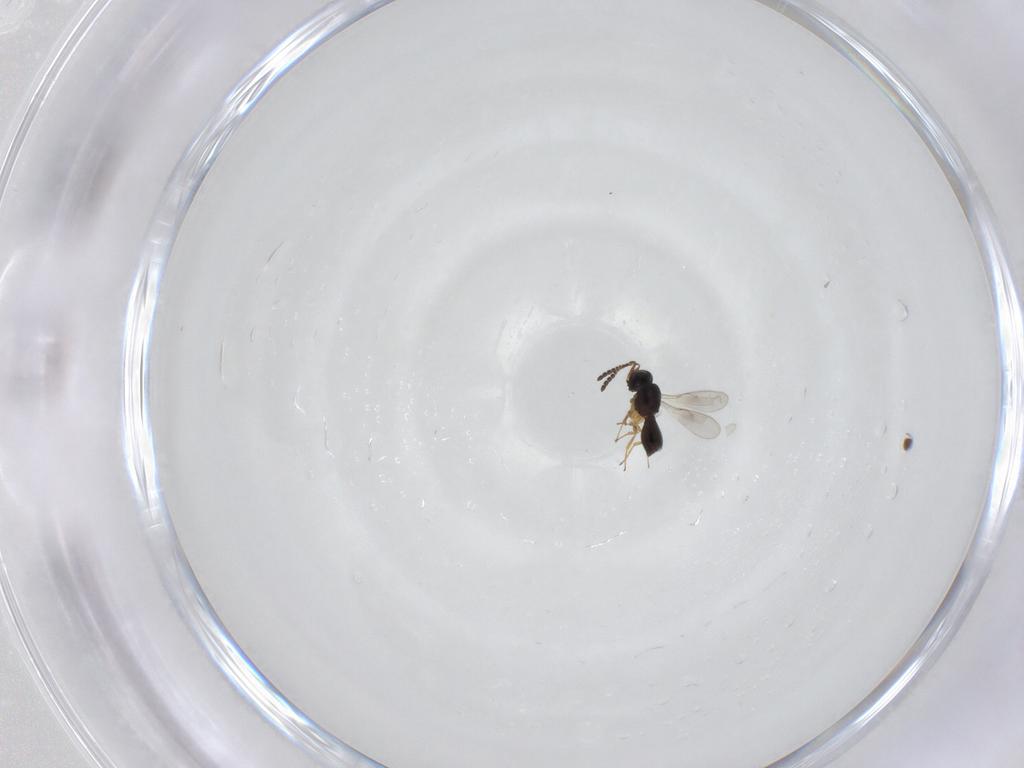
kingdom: Animalia
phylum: Arthropoda
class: Insecta
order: Hymenoptera
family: Scelionidae
